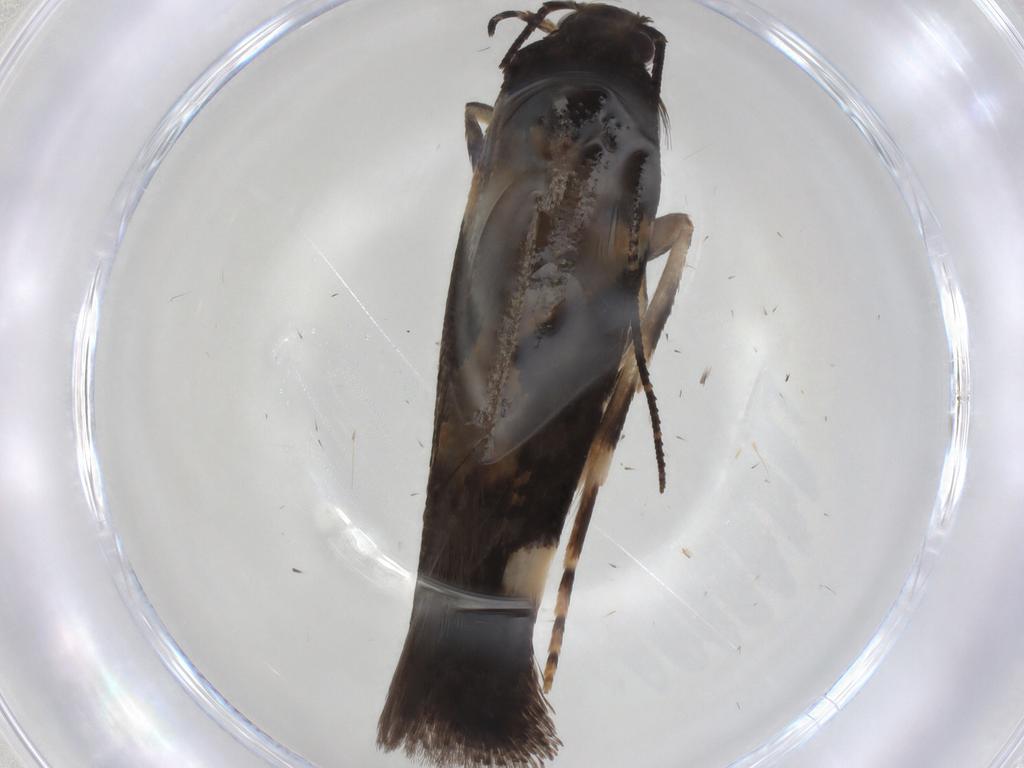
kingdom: Animalia
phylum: Arthropoda
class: Insecta
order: Lepidoptera
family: Gelechiidae
